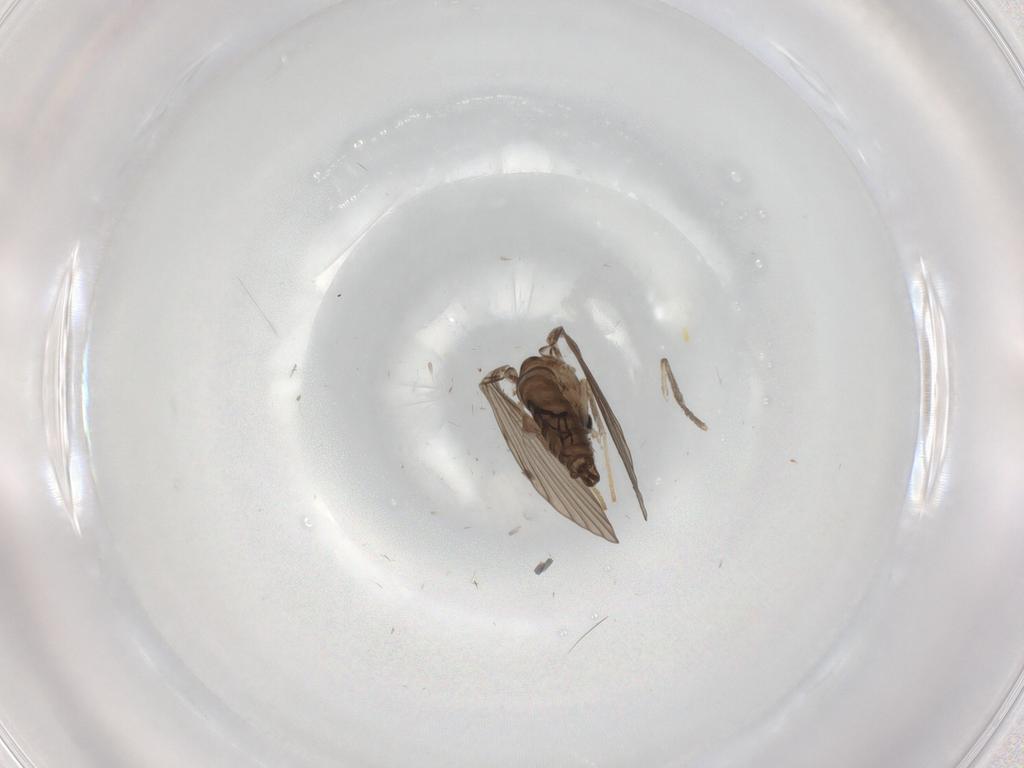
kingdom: Animalia
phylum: Arthropoda
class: Insecta
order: Diptera
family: Psychodidae
